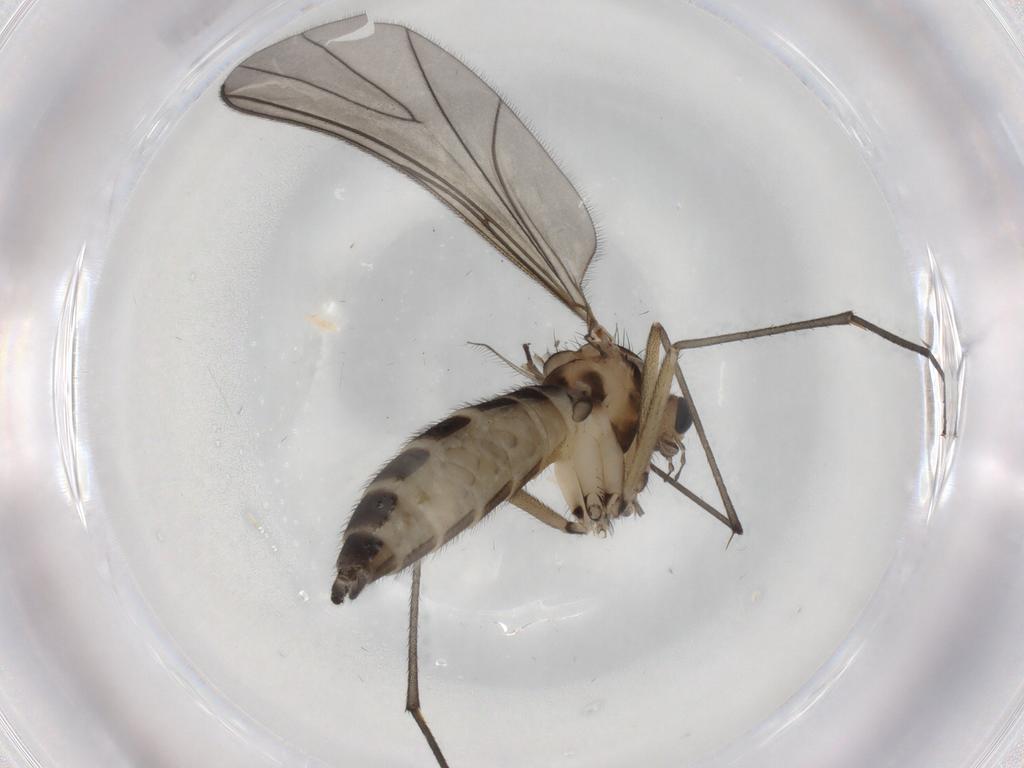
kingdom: Animalia
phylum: Arthropoda
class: Insecta
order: Diptera
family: Sciaridae
